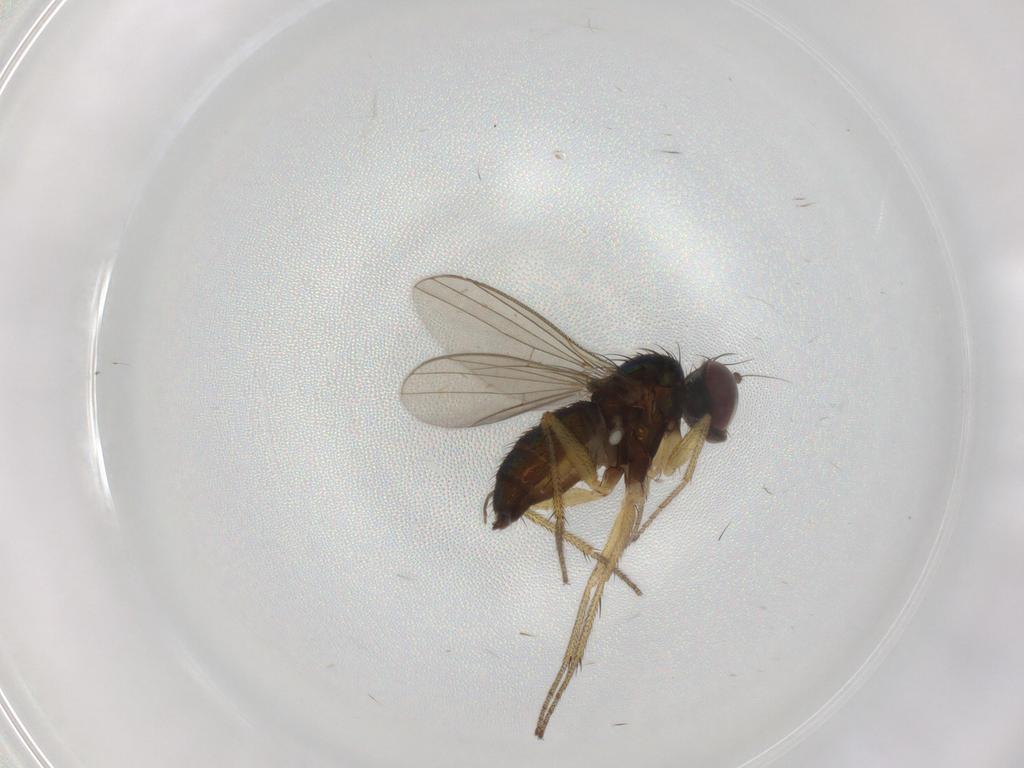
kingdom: Animalia
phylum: Arthropoda
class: Insecta
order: Diptera
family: Chironomidae
